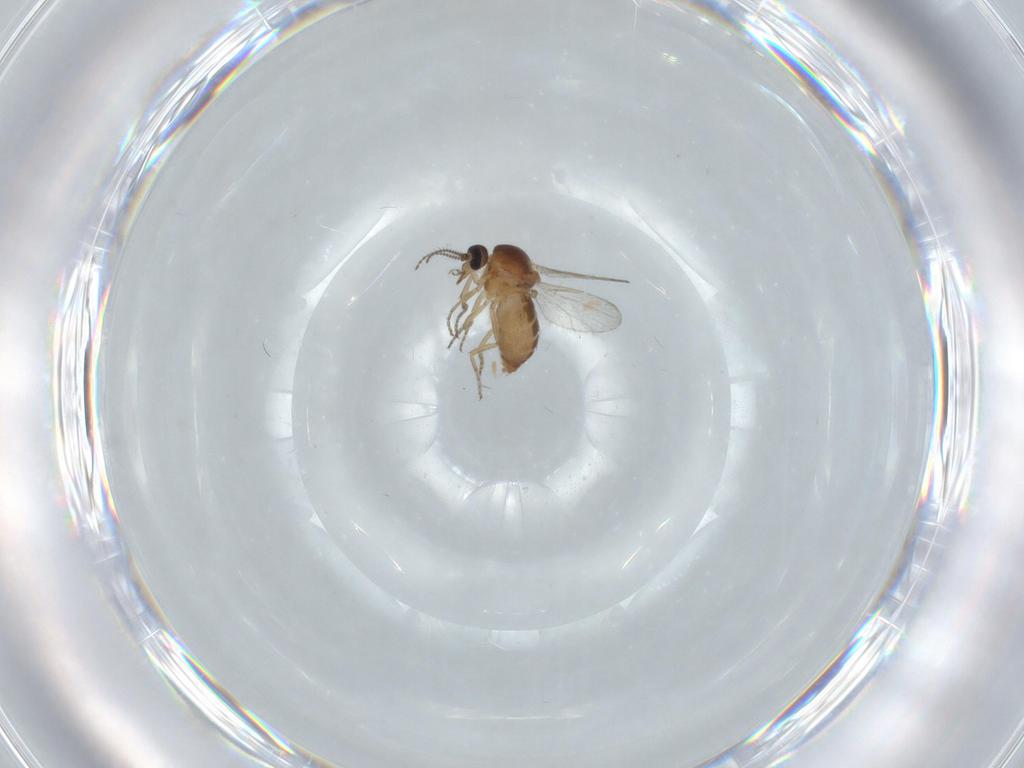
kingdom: Animalia
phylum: Arthropoda
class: Insecta
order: Diptera
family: Ceratopogonidae
